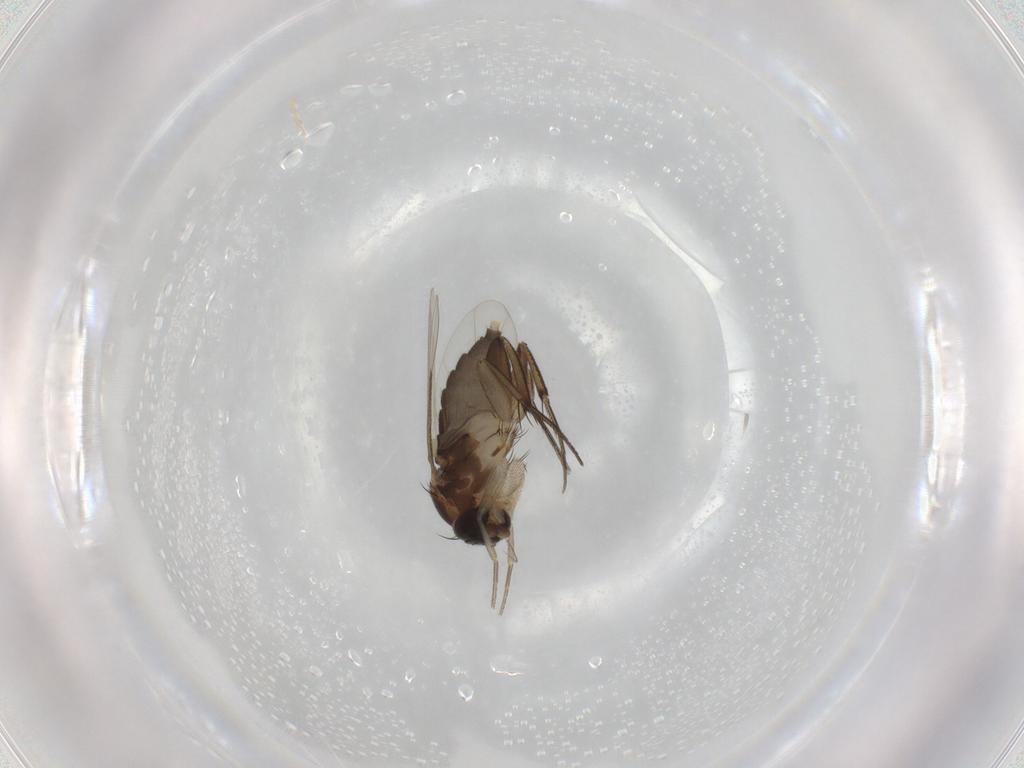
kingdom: Animalia
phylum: Arthropoda
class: Insecta
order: Diptera
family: Phoridae
